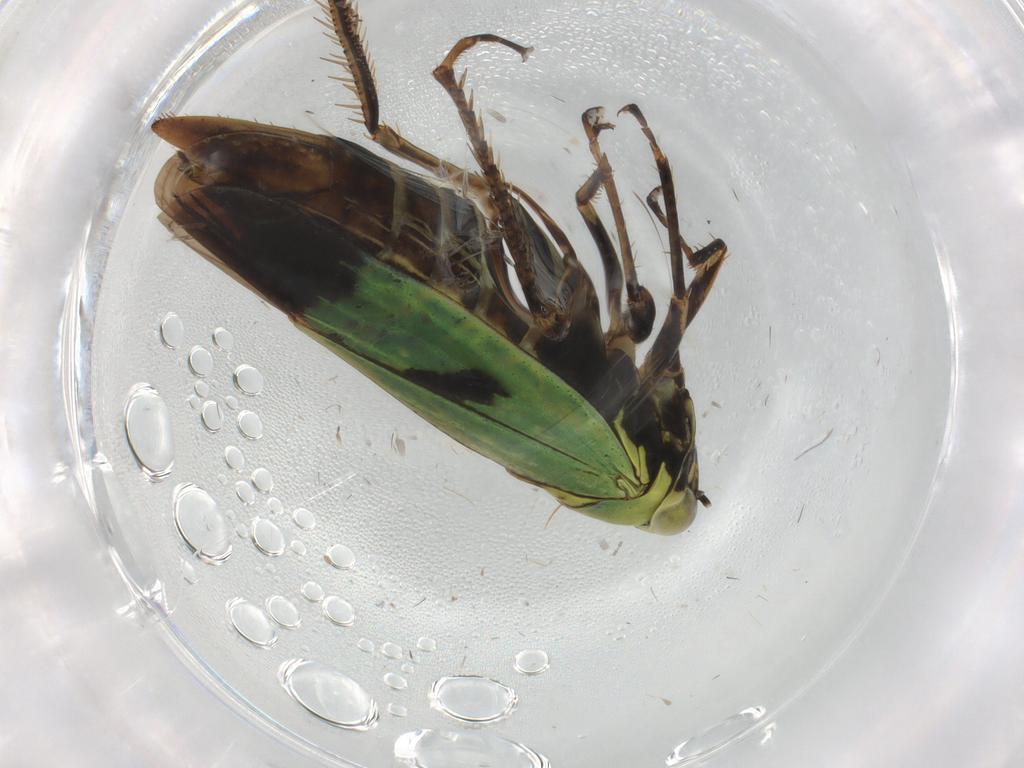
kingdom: Animalia
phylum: Arthropoda
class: Insecta
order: Hemiptera
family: Cicadellidae
